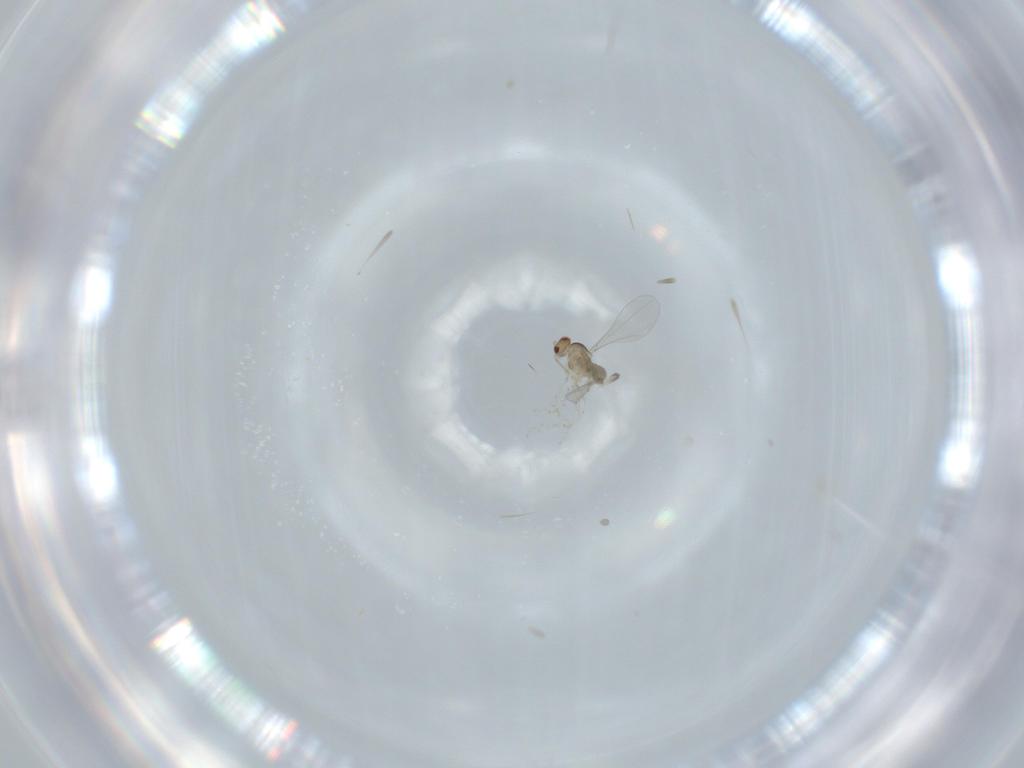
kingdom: Animalia
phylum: Arthropoda
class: Insecta
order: Diptera
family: Cecidomyiidae
